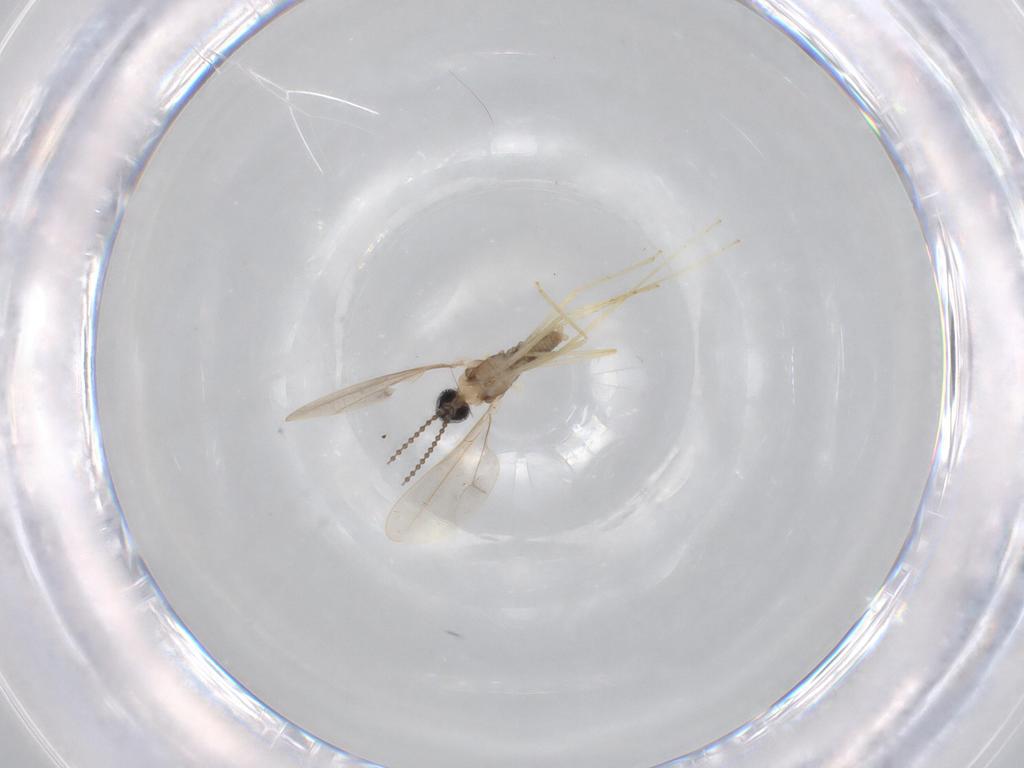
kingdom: Animalia
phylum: Arthropoda
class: Insecta
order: Diptera
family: Cecidomyiidae
